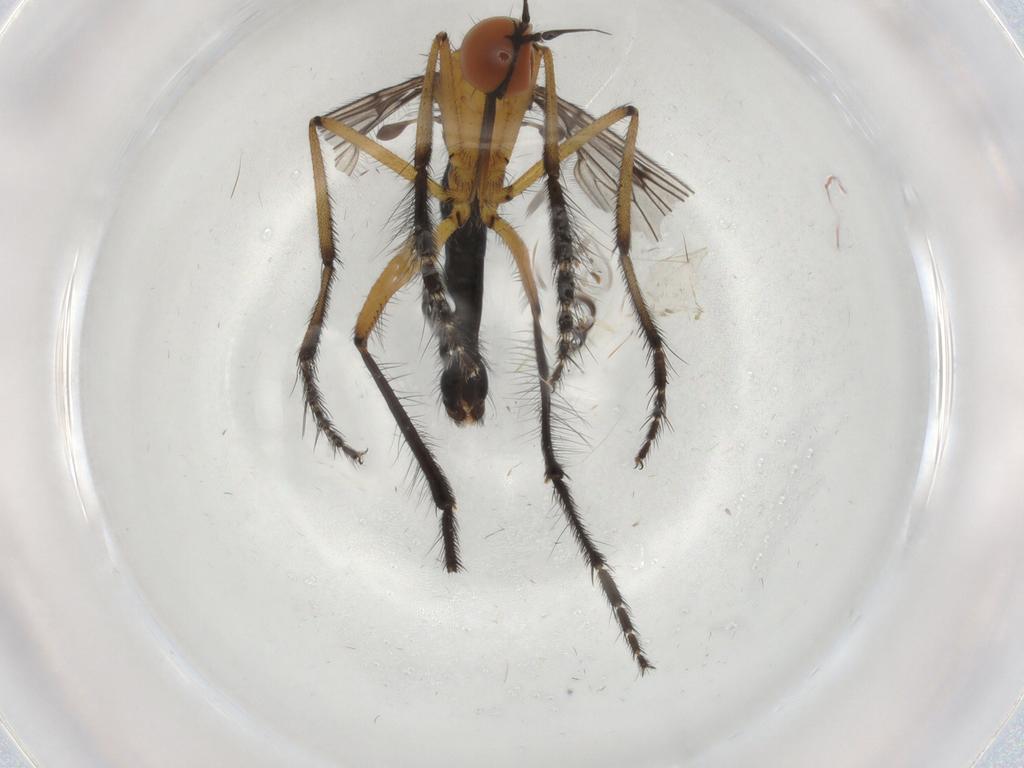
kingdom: Animalia
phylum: Arthropoda
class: Insecta
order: Diptera
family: Empididae
